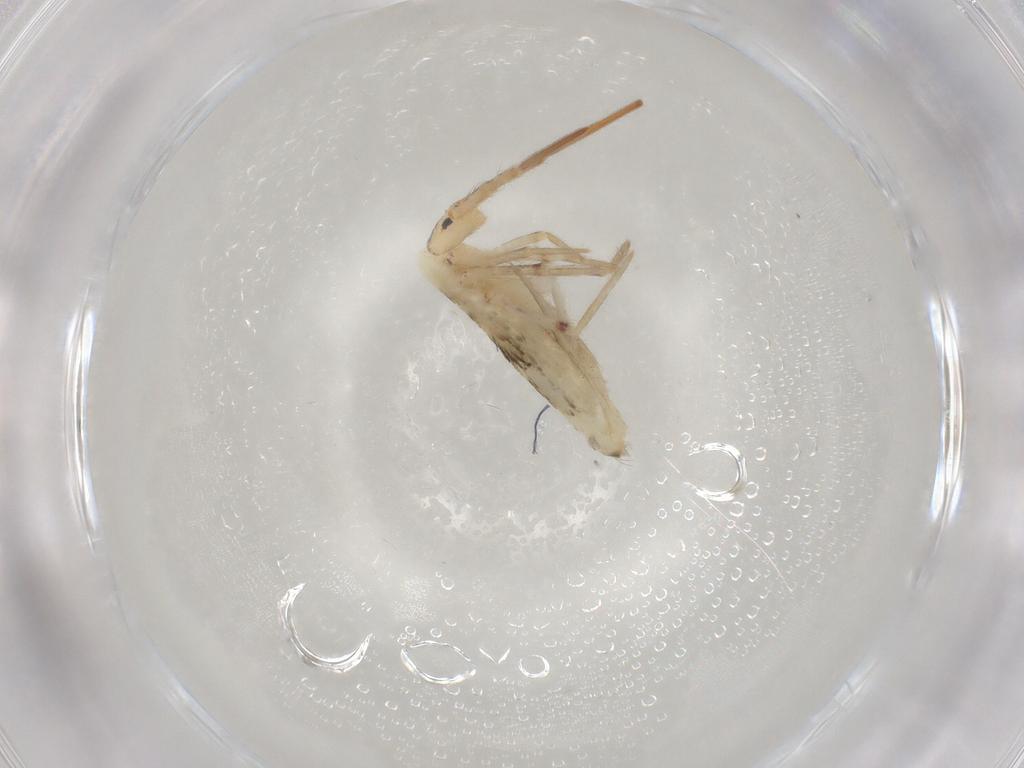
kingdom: Animalia
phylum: Arthropoda
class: Collembola
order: Entomobryomorpha
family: Entomobryidae
